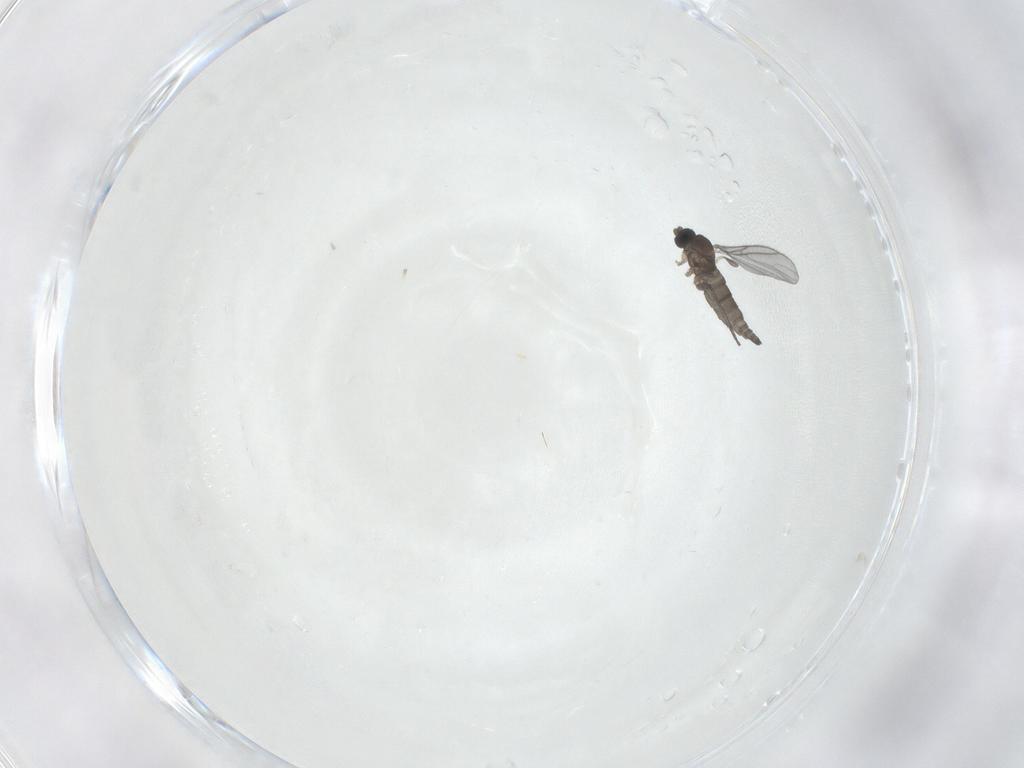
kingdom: Animalia
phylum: Arthropoda
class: Insecta
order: Diptera
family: Sciaridae
